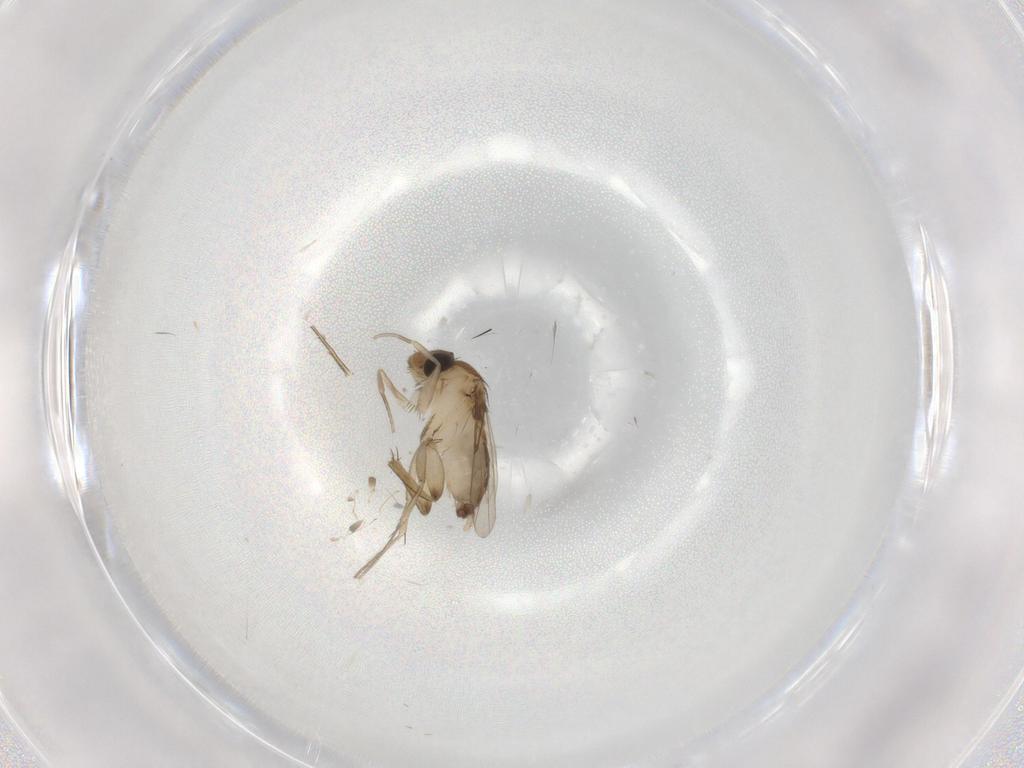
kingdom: Animalia
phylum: Arthropoda
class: Insecta
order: Diptera
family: Phoridae
